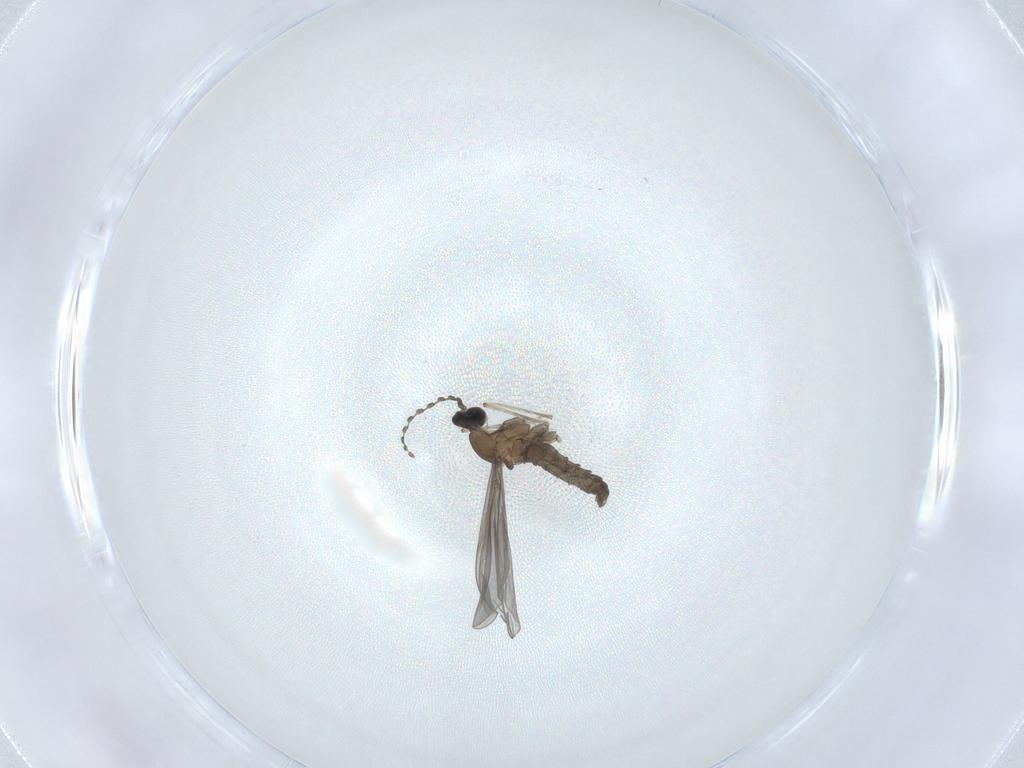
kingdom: Animalia
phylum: Arthropoda
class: Insecta
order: Diptera
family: Cecidomyiidae
